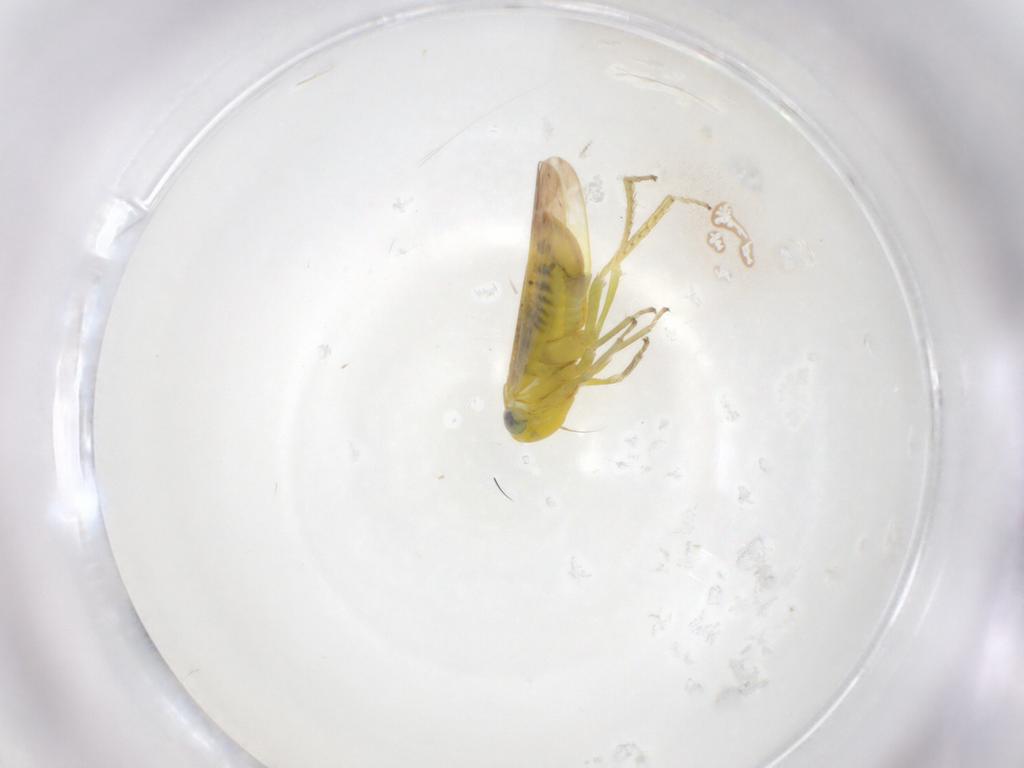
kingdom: Animalia
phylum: Arthropoda
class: Insecta
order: Hemiptera
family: Cicadellidae
